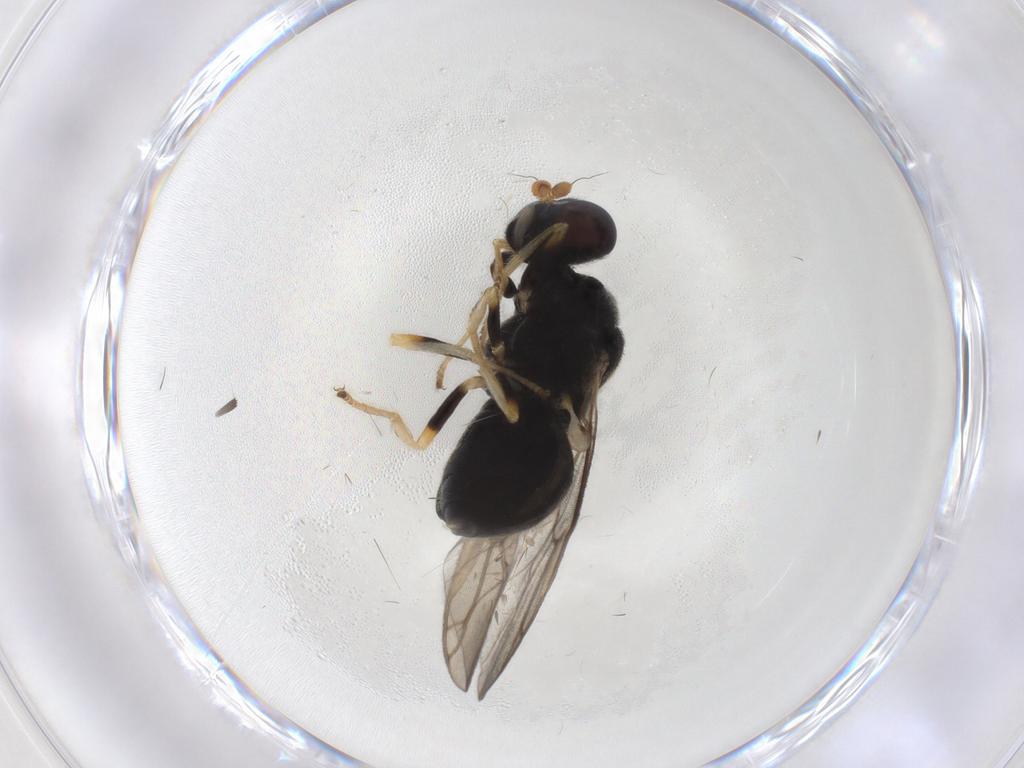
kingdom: Animalia
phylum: Arthropoda
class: Insecta
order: Diptera
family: Stratiomyidae
